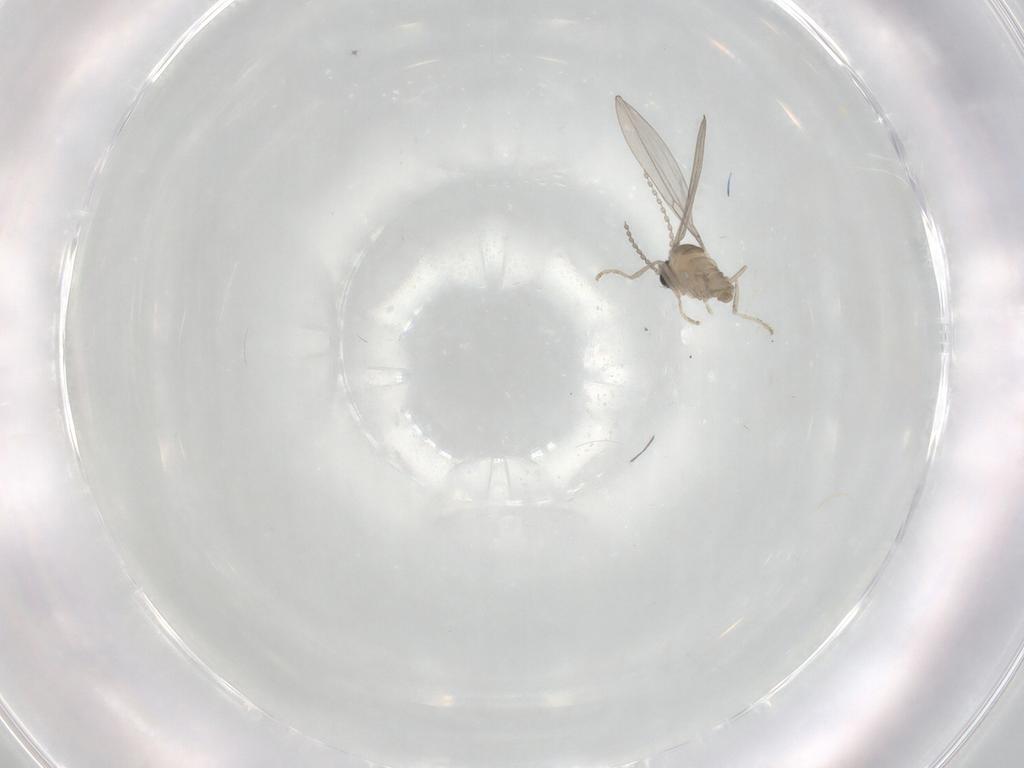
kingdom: Animalia
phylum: Arthropoda
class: Insecta
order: Diptera
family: Cecidomyiidae
